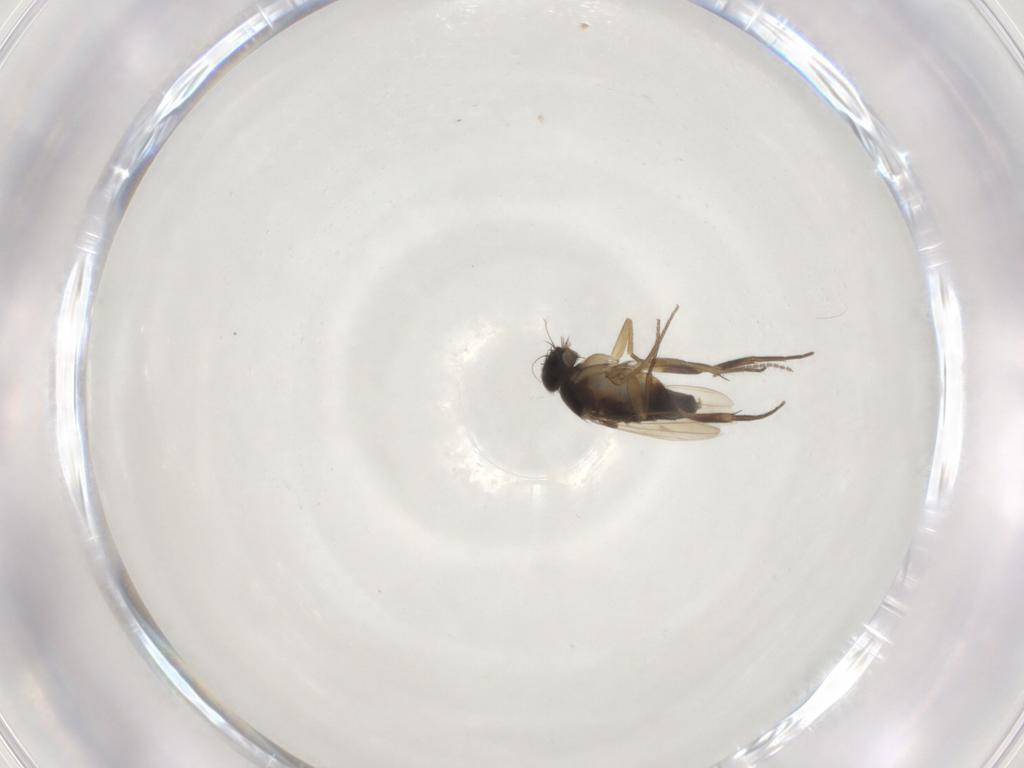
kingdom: Animalia
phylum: Arthropoda
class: Insecta
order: Diptera
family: Phoridae
